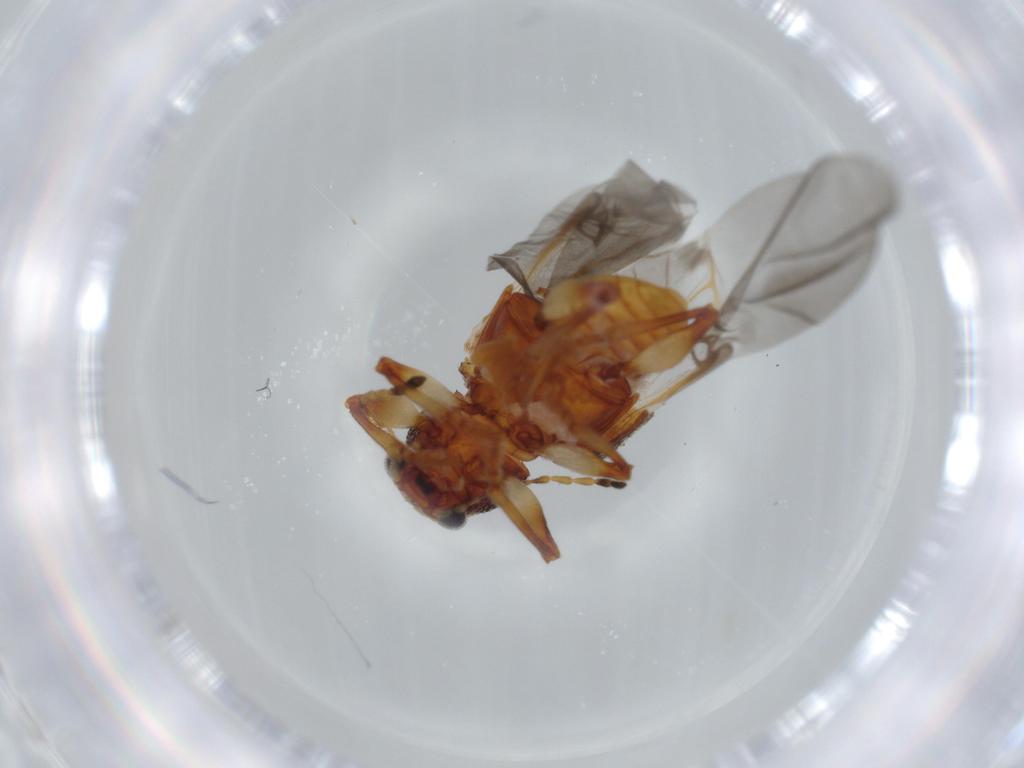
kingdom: Animalia
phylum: Arthropoda
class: Insecta
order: Coleoptera
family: Chrysomelidae
